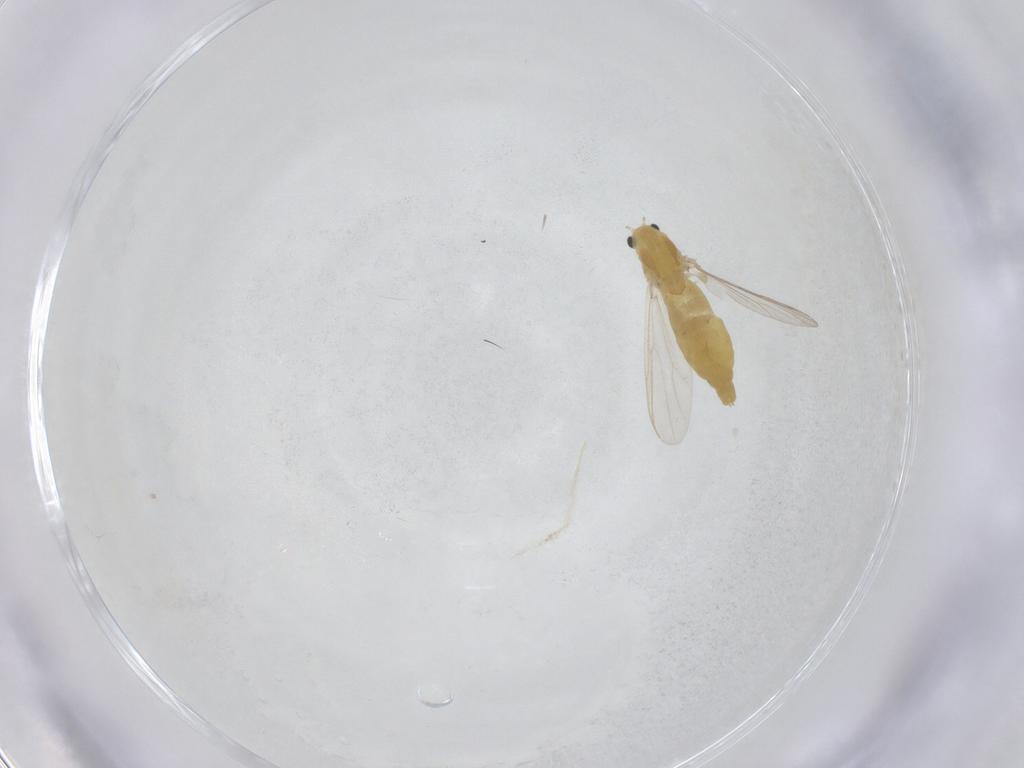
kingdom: Animalia
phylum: Arthropoda
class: Insecta
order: Diptera
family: Chironomidae
